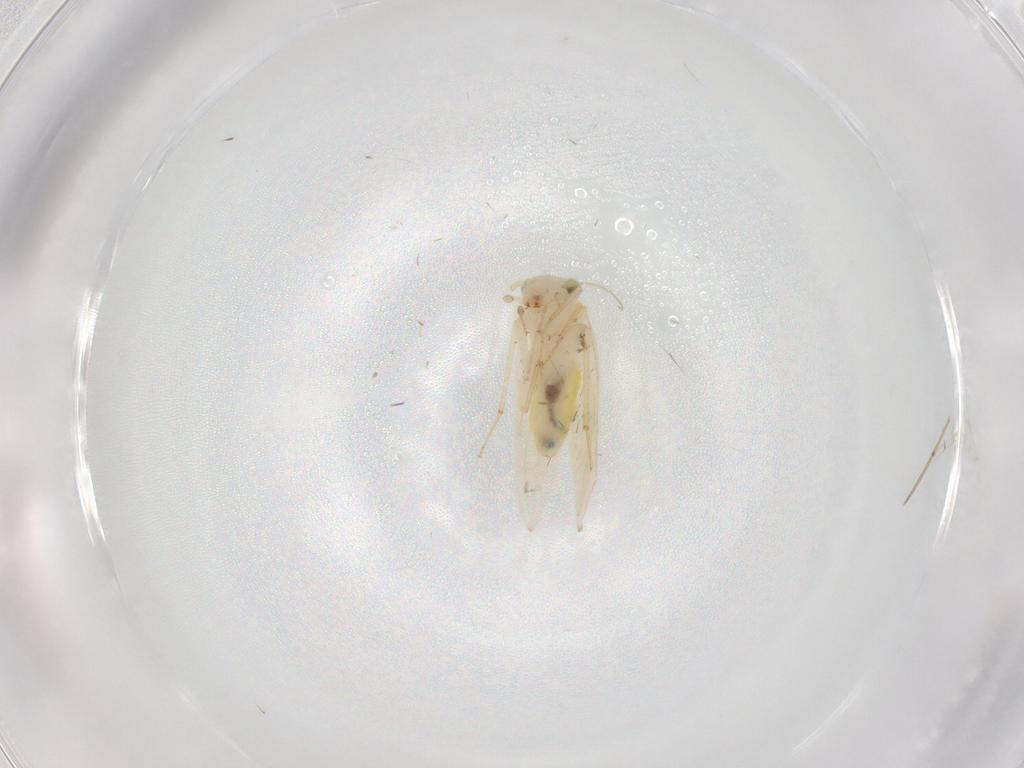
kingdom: Animalia
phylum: Arthropoda
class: Insecta
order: Psocodea
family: Lepidopsocidae
